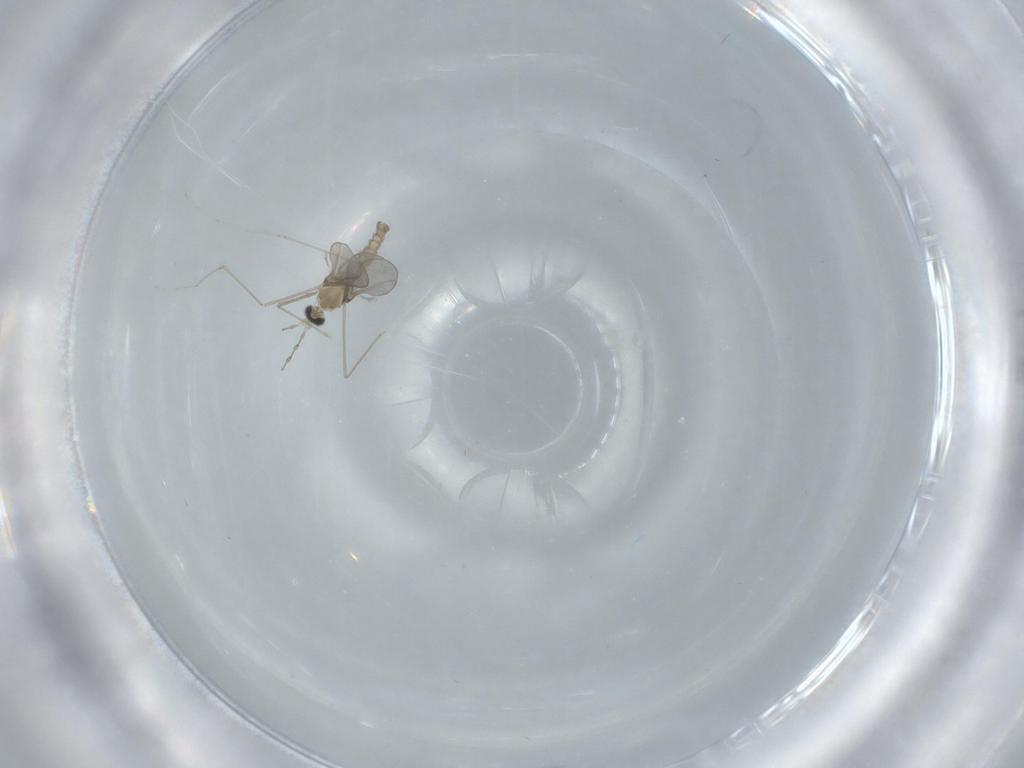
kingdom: Animalia
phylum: Arthropoda
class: Insecta
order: Diptera
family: Cecidomyiidae
